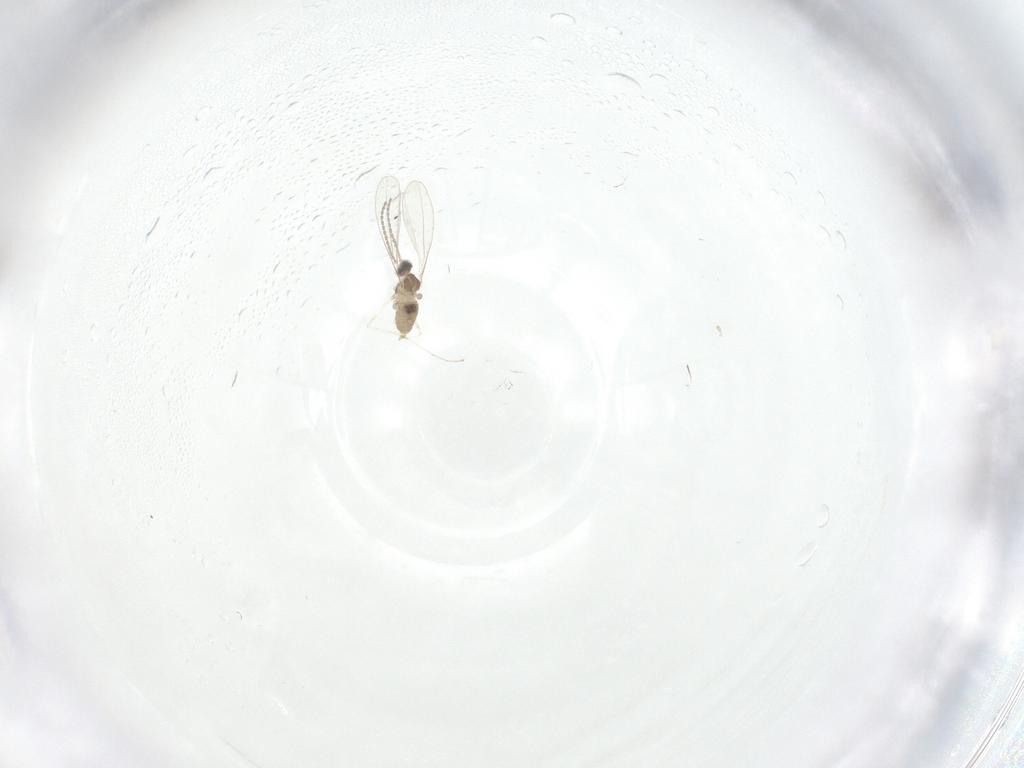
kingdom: Animalia
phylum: Arthropoda
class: Insecta
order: Diptera
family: Cecidomyiidae
